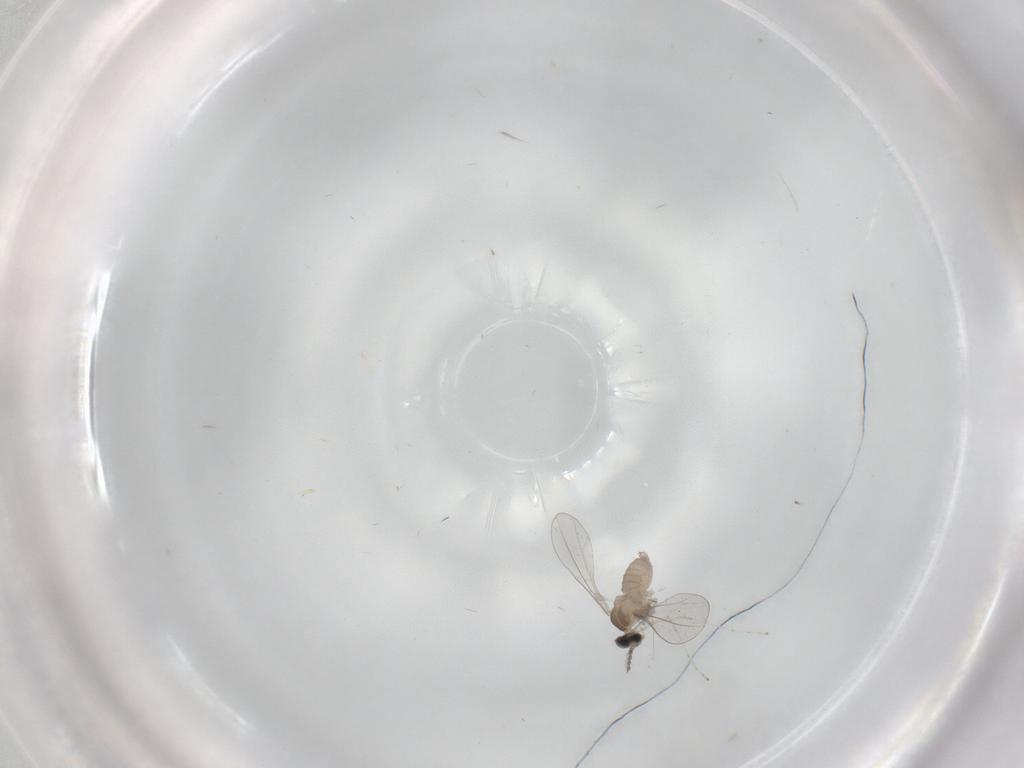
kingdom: Animalia
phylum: Arthropoda
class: Insecta
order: Diptera
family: Cecidomyiidae
